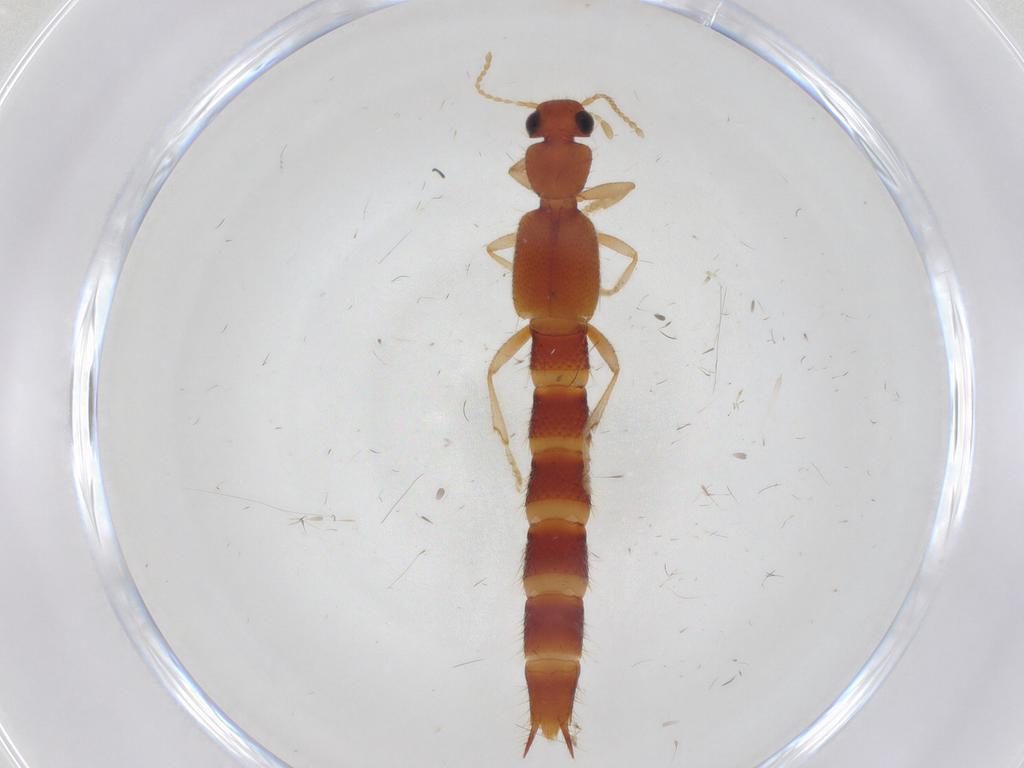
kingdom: Animalia
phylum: Arthropoda
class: Insecta
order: Coleoptera
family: Staphylinidae
